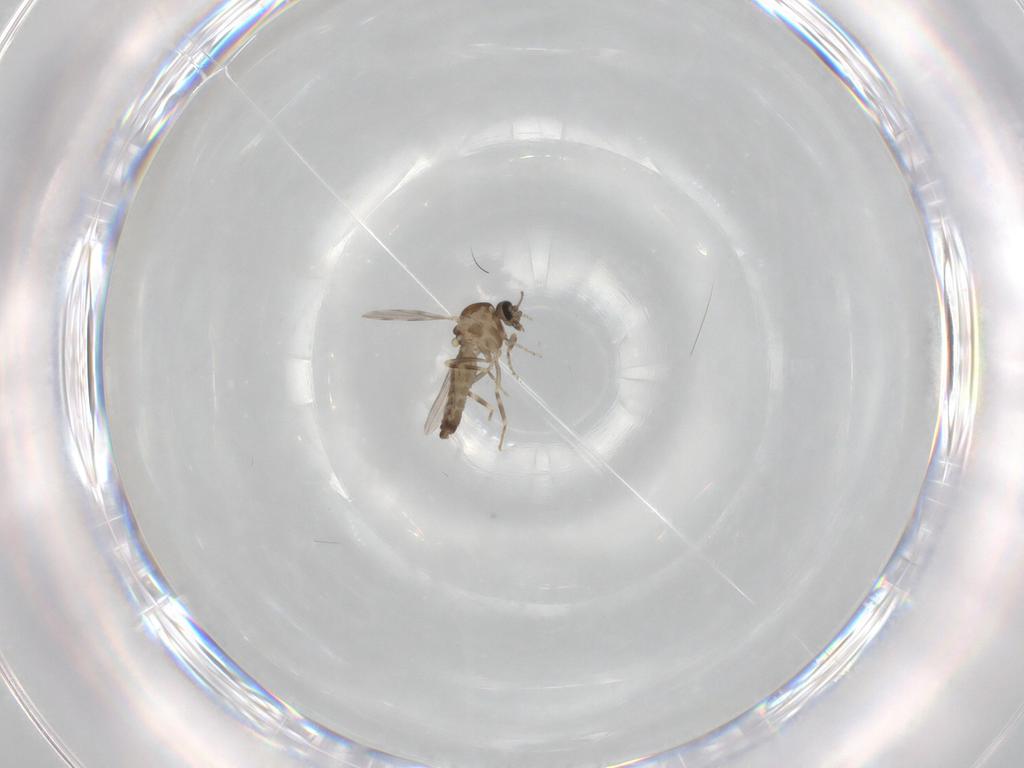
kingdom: Animalia
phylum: Arthropoda
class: Insecta
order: Diptera
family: Ceratopogonidae
